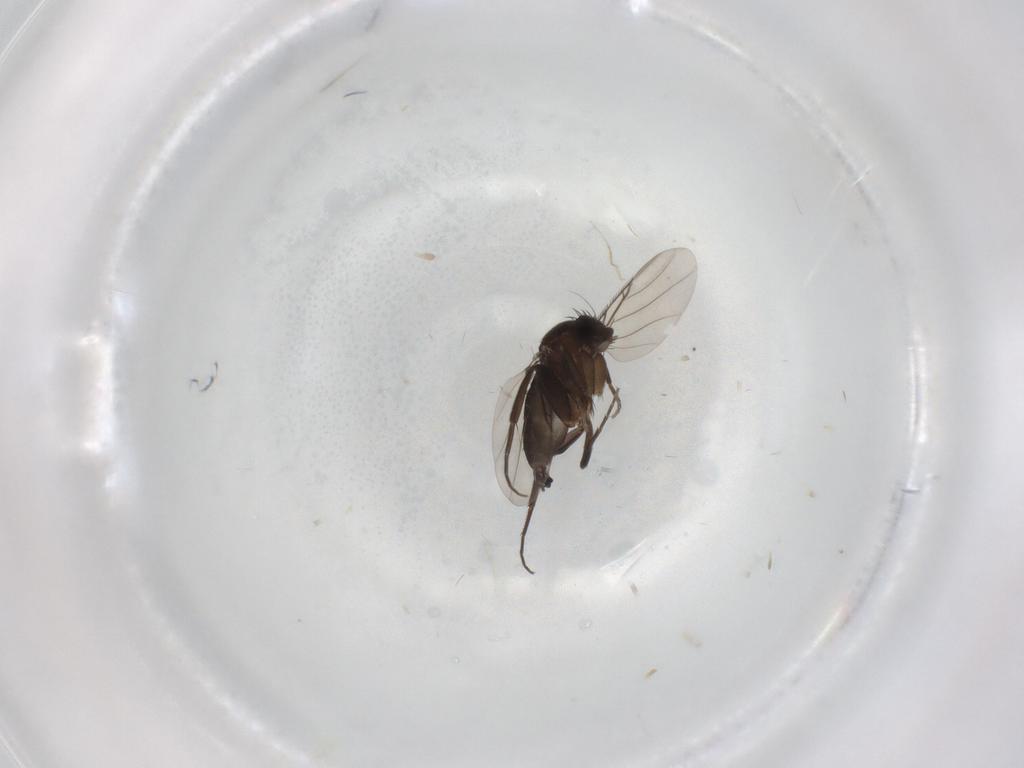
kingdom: Animalia
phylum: Arthropoda
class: Insecta
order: Diptera
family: Phoridae
